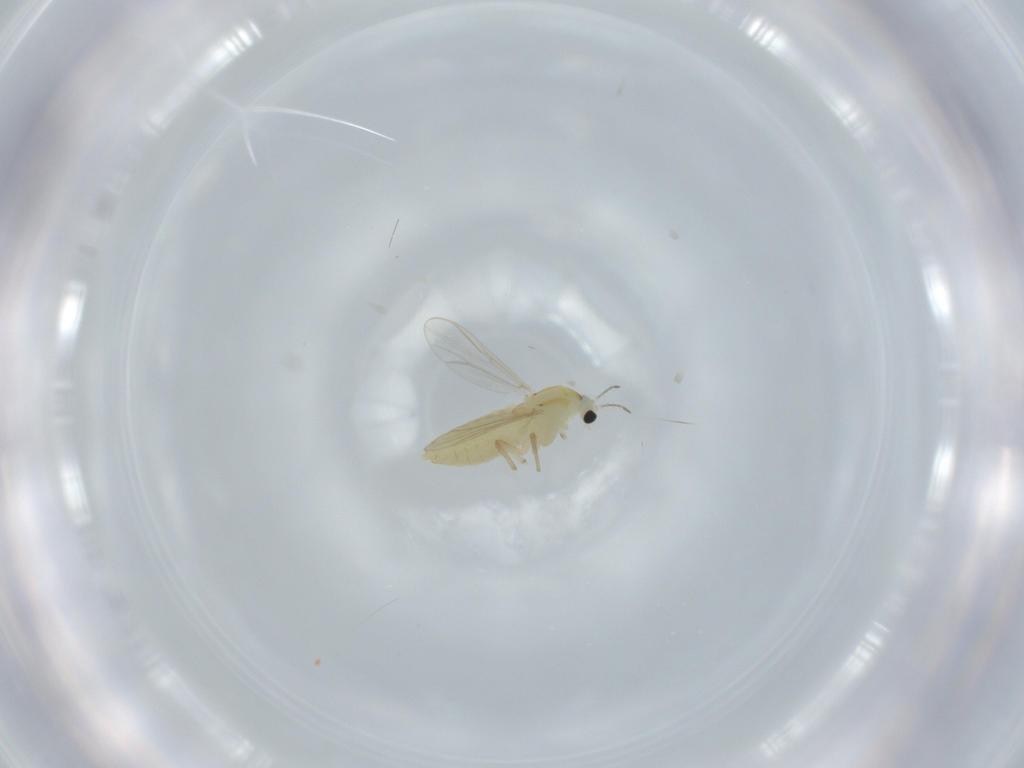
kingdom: Animalia
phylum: Arthropoda
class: Insecta
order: Diptera
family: Chironomidae
